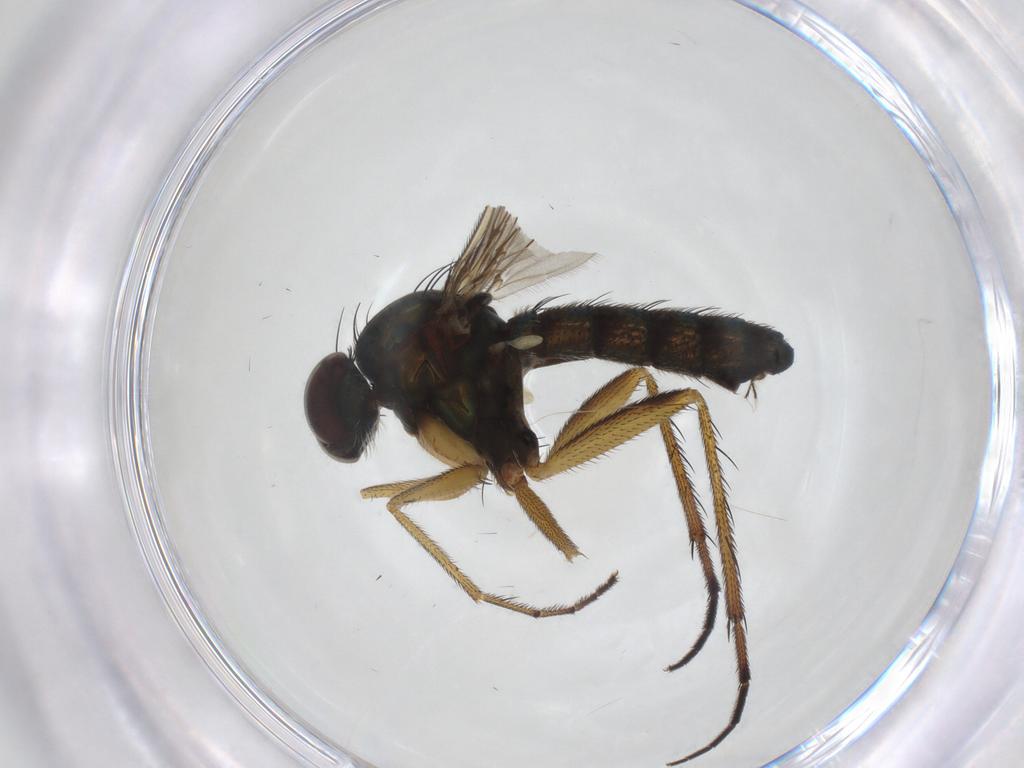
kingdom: Animalia
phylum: Arthropoda
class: Insecta
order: Diptera
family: Dolichopodidae
